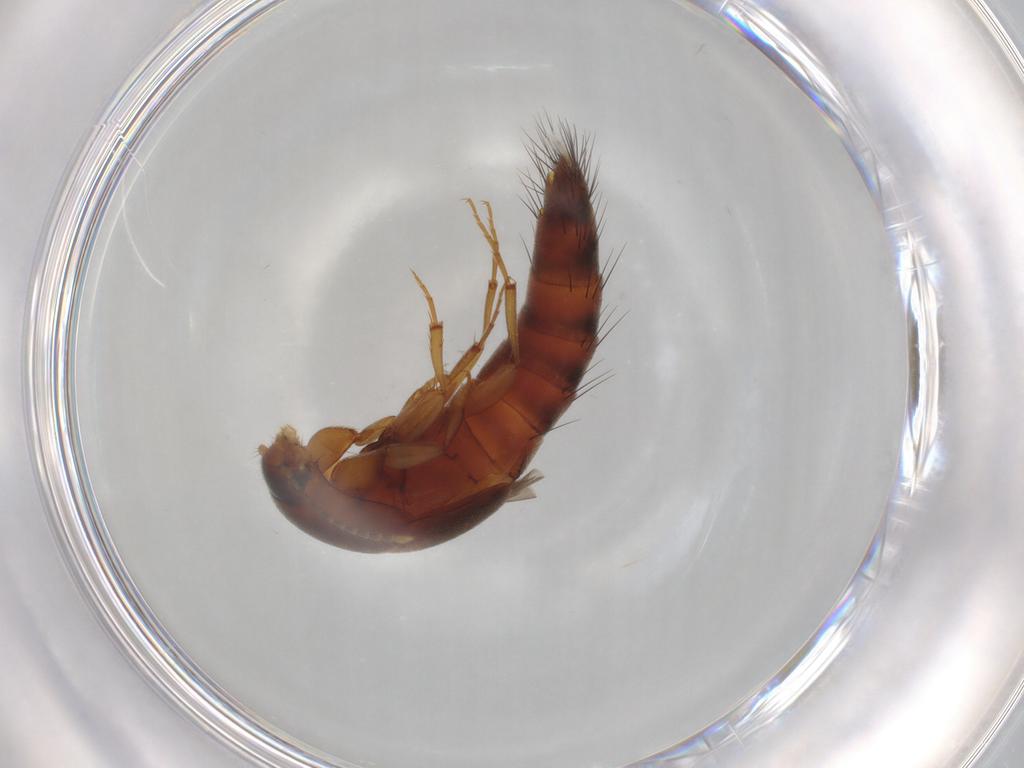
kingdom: Animalia
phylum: Arthropoda
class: Insecta
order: Coleoptera
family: Staphylinidae
